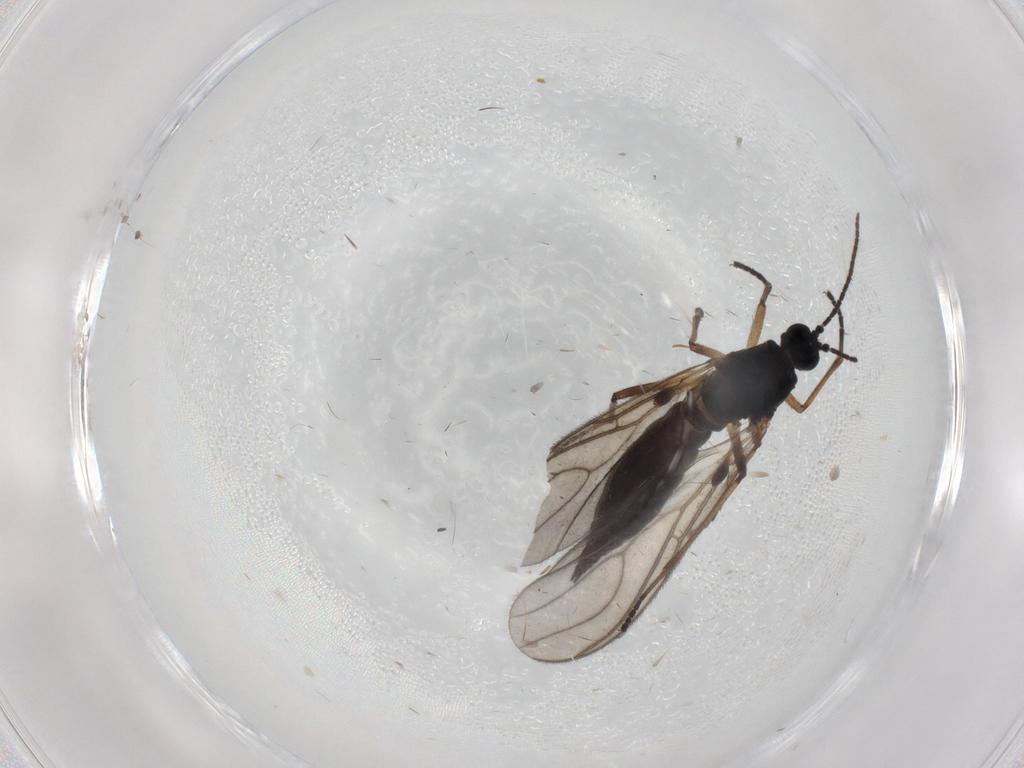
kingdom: Animalia
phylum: Arthropoda
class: Insecta
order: Diptera
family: Sciaridae
